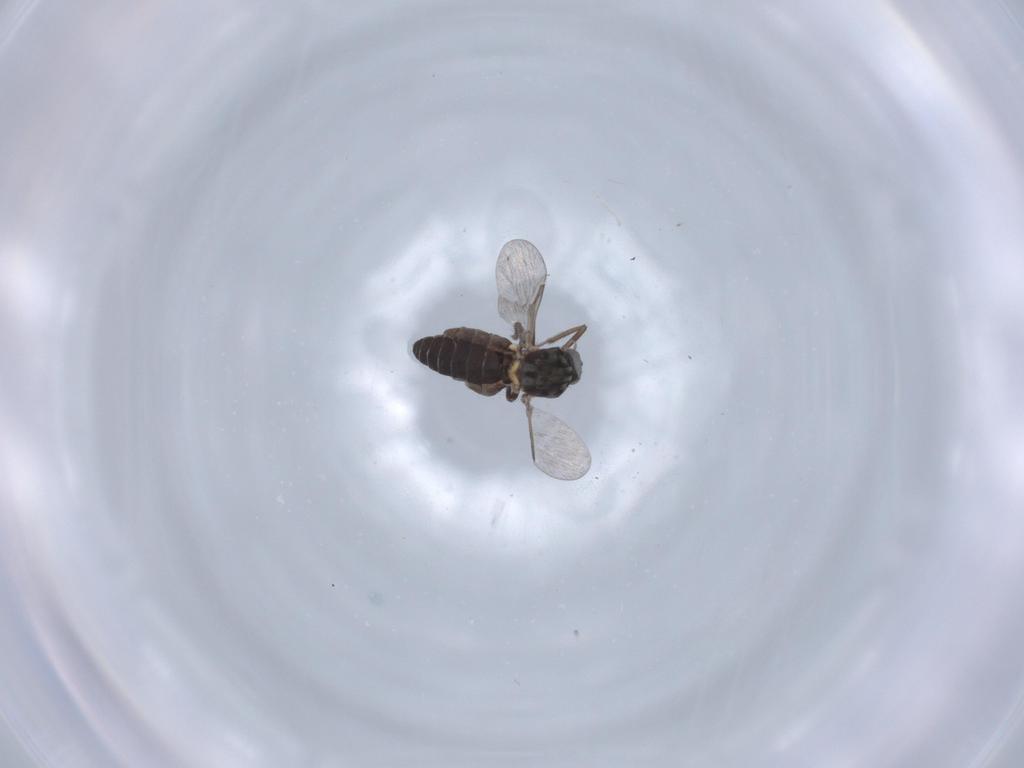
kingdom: Animalia
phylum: Arthropoda
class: Insecta
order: Diptera
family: Ceratopogonidae
